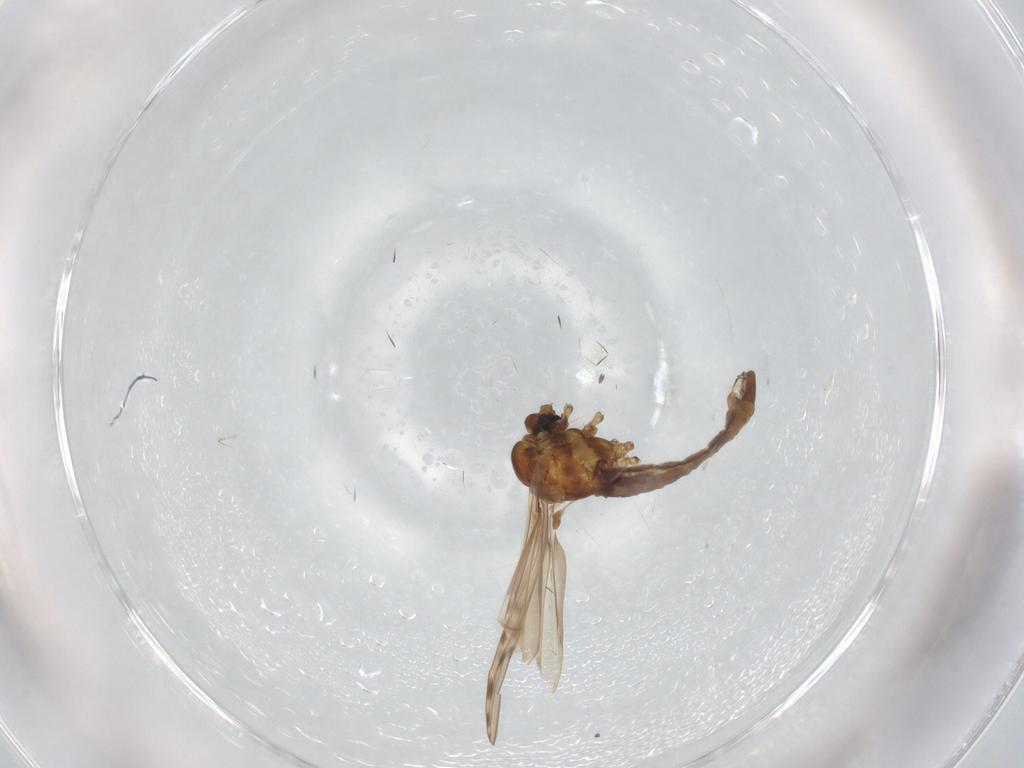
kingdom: Animalia
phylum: Arthropoda
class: Insecta
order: Diptera
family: Limoniidae
